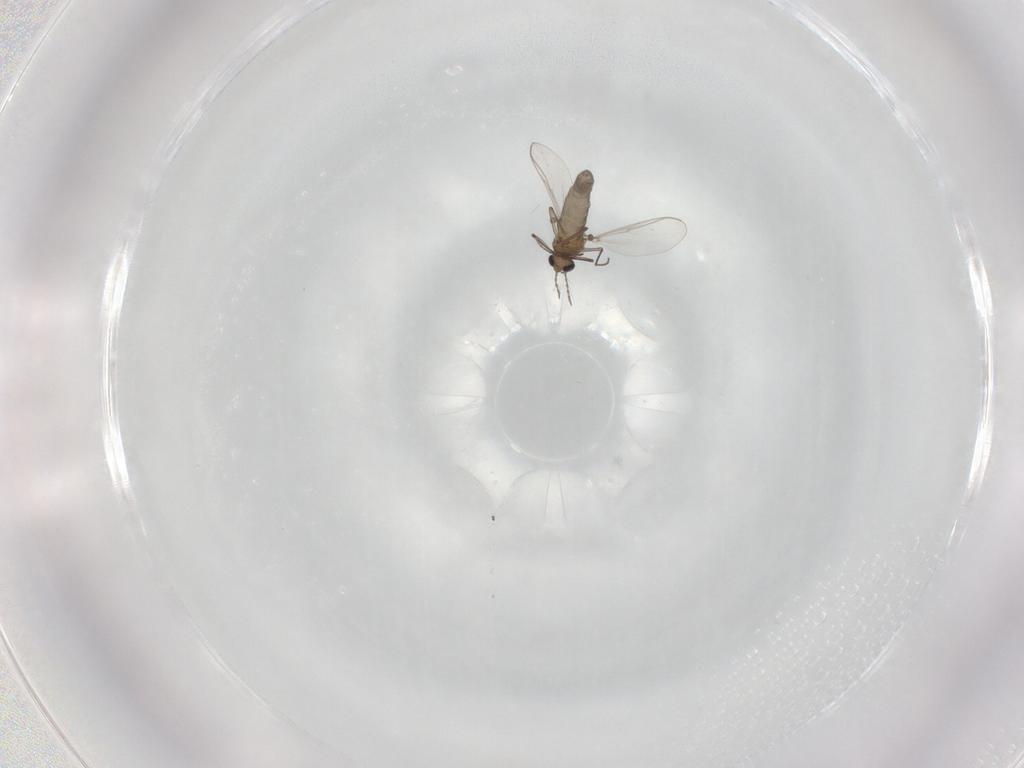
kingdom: Animalia
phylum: Arthropoda
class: Insecta
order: Diptera
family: Chironomidae
